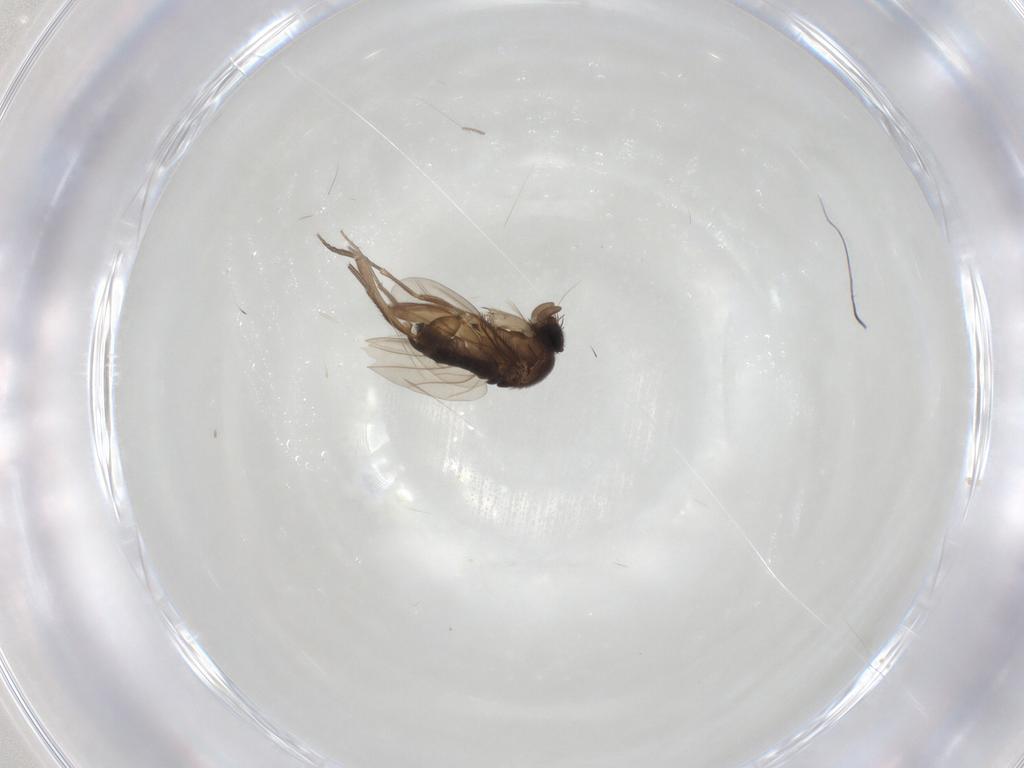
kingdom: Animalia
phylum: Arthropoda
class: Insecta
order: Diptera
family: Phoridae
